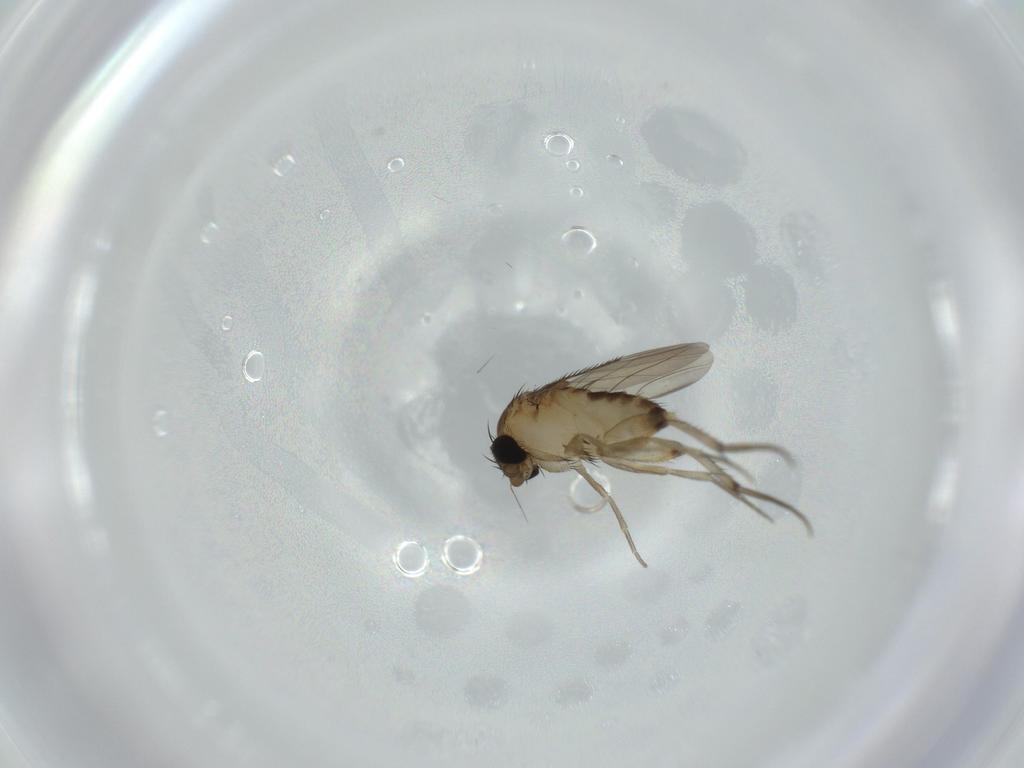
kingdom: Animalia
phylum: Arthropoda
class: Insecta
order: Diptera
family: Phoridae
